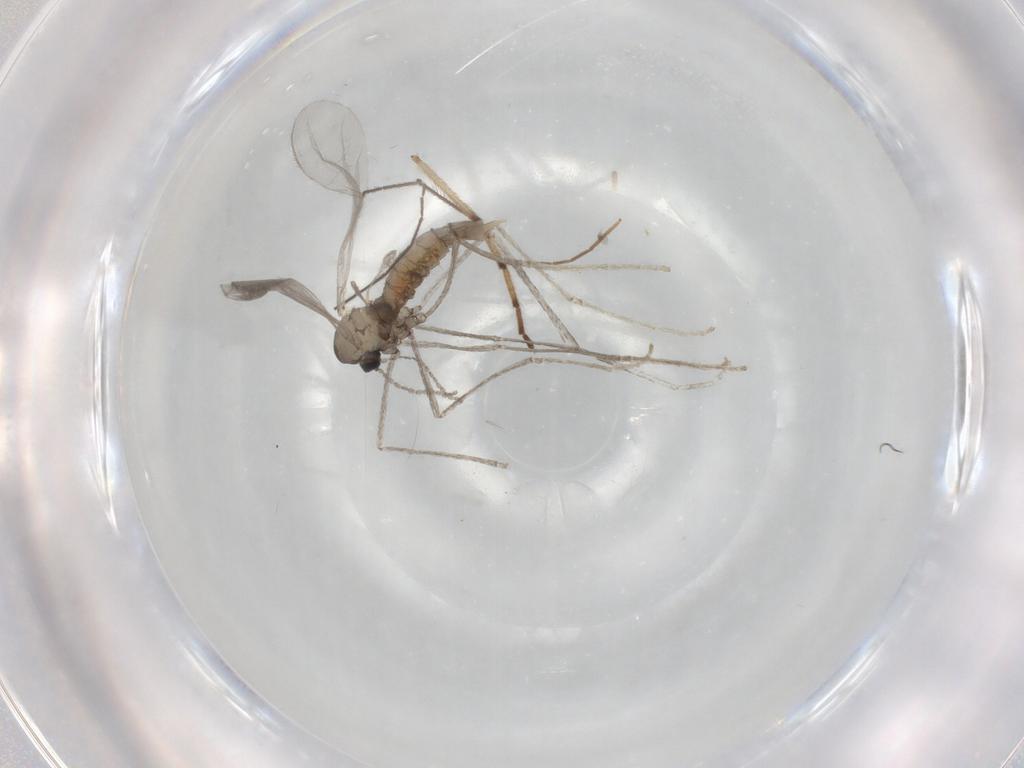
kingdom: Animalia
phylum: Arthropoda
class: Insecta
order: Diptera
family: Cecidomyiidae
